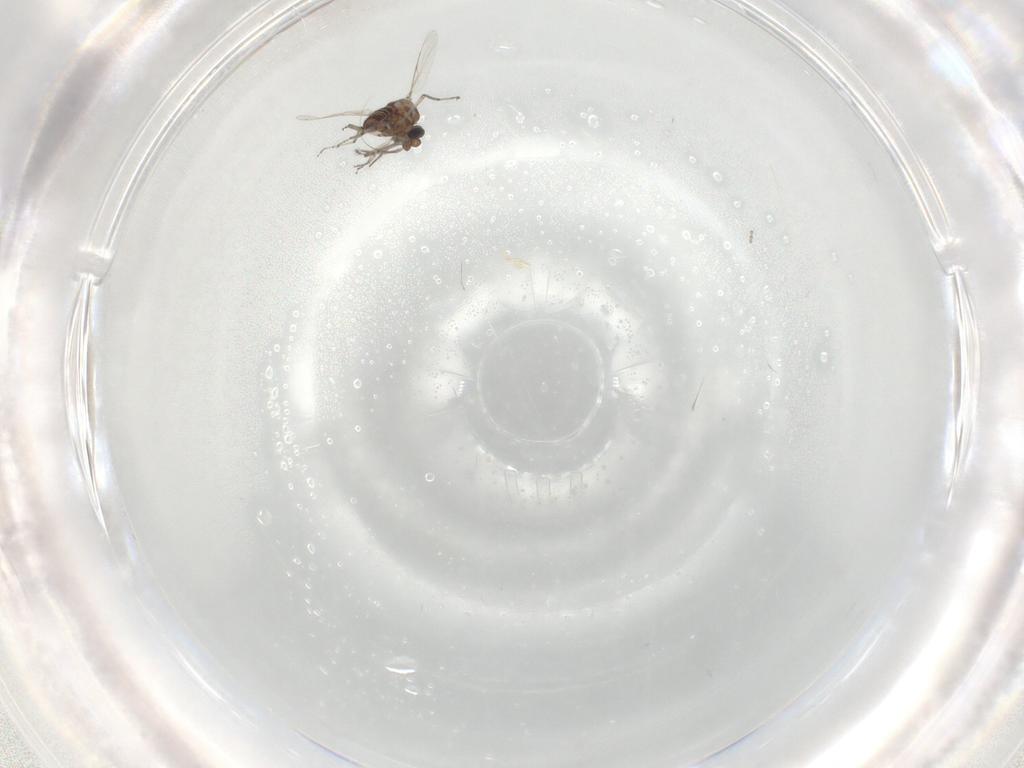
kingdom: Animalia
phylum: Arthropoda
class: Insecta
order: Diptera
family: Ceratopogonidae
